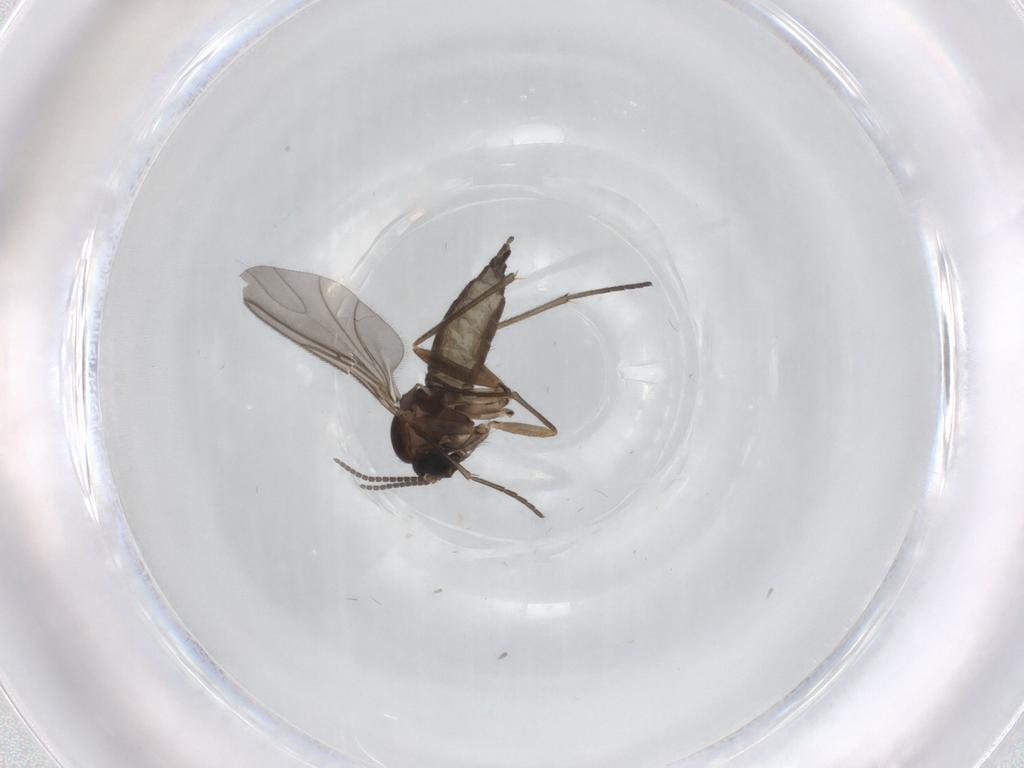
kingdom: Animalia
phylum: Arthropoda
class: Insecta
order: Diptera
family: Sciaridae
